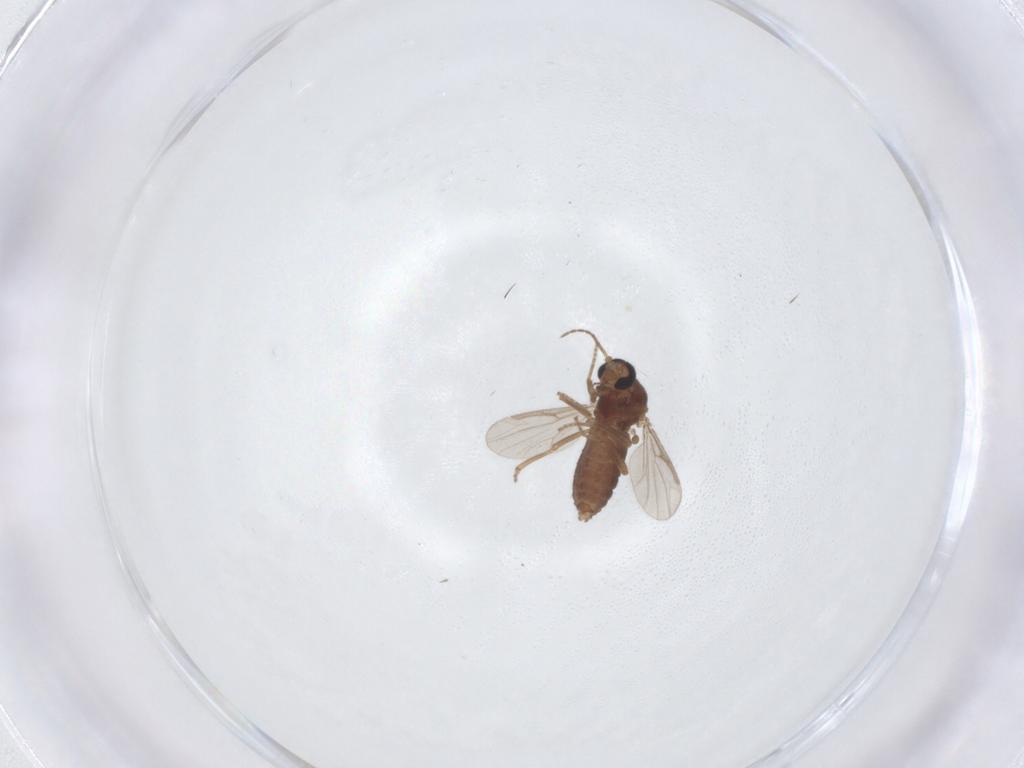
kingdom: Animalia
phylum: Arthropoda
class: Insecta
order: Diptera
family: Ceratopogonidae
